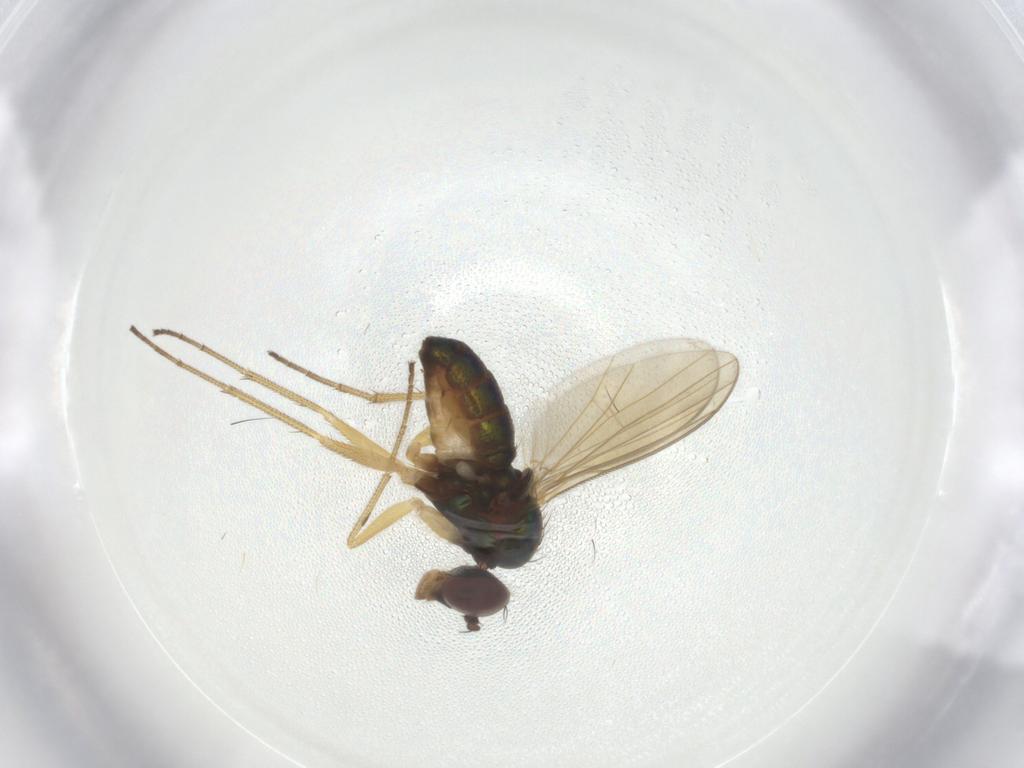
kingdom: Animalia
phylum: Arthropoda
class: Insecta
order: Diptera
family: Dolichopodidae
